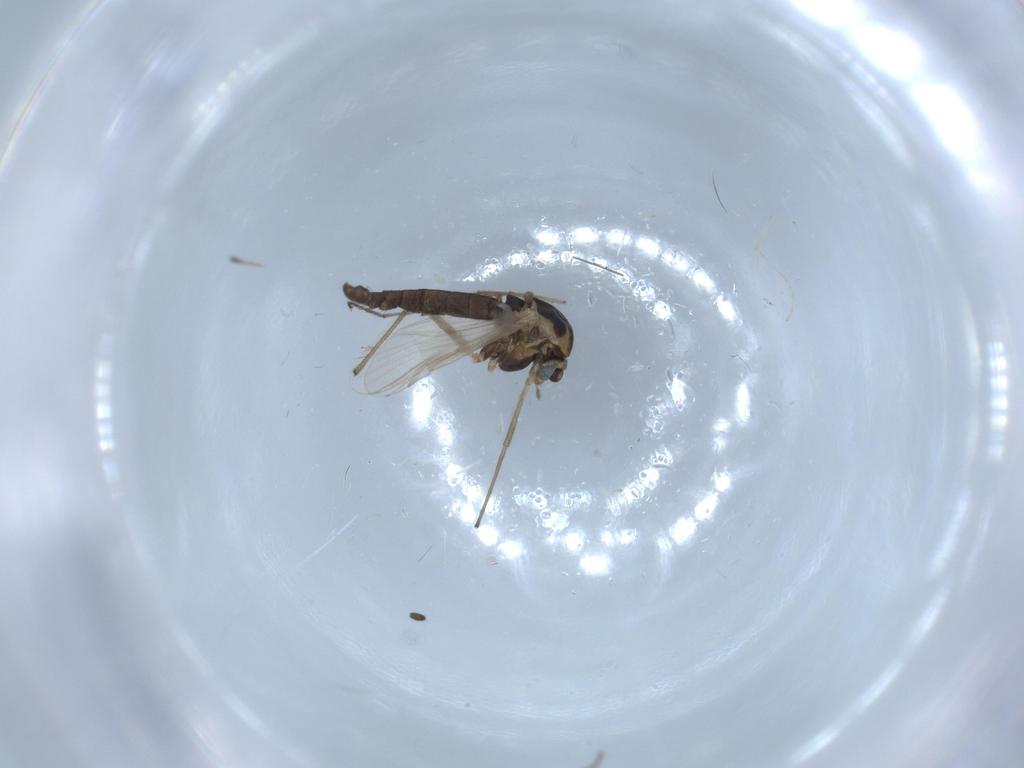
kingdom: Animalia
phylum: Arthropoda
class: Insecta
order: Diptera
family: Chironomidae
